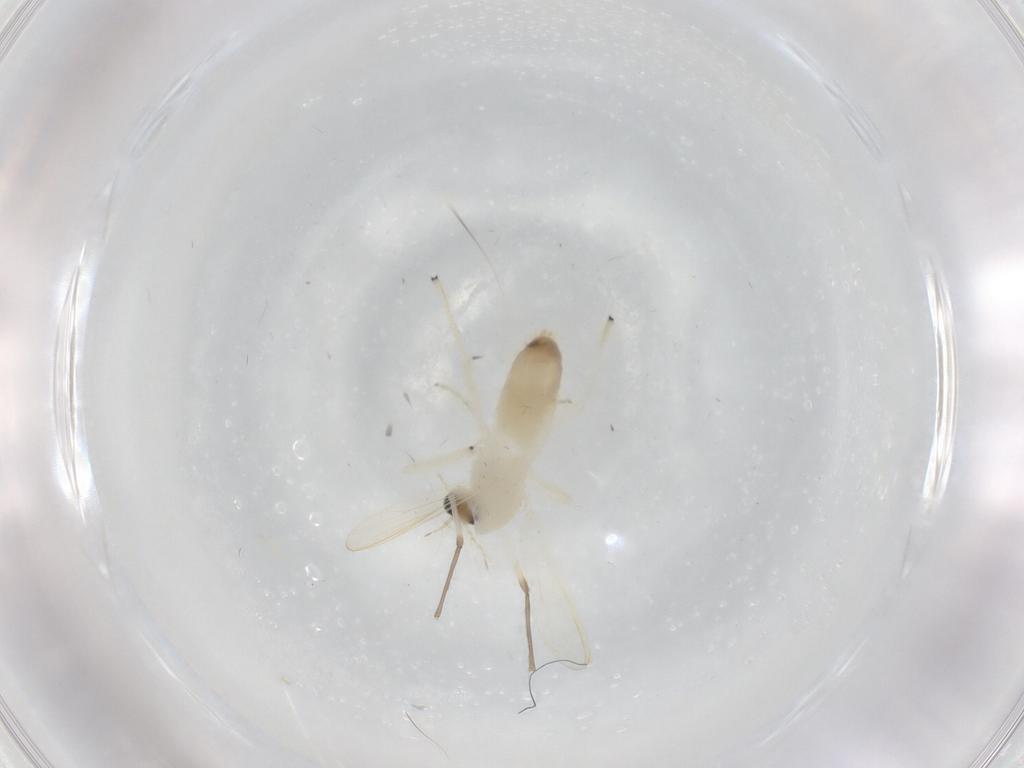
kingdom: Animalia
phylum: Arthropoda
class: Insecta
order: Diptera
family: Chironomidae
